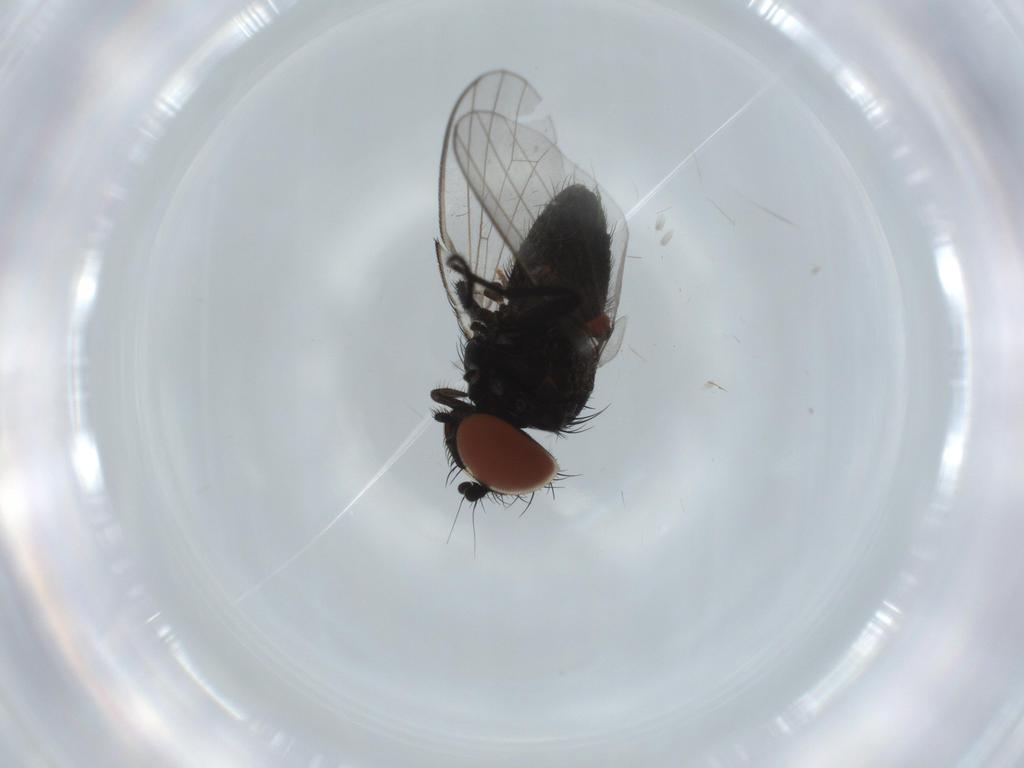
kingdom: Animalia
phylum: Arthropoda
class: Insecta
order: Diptera
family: Milichiidae
